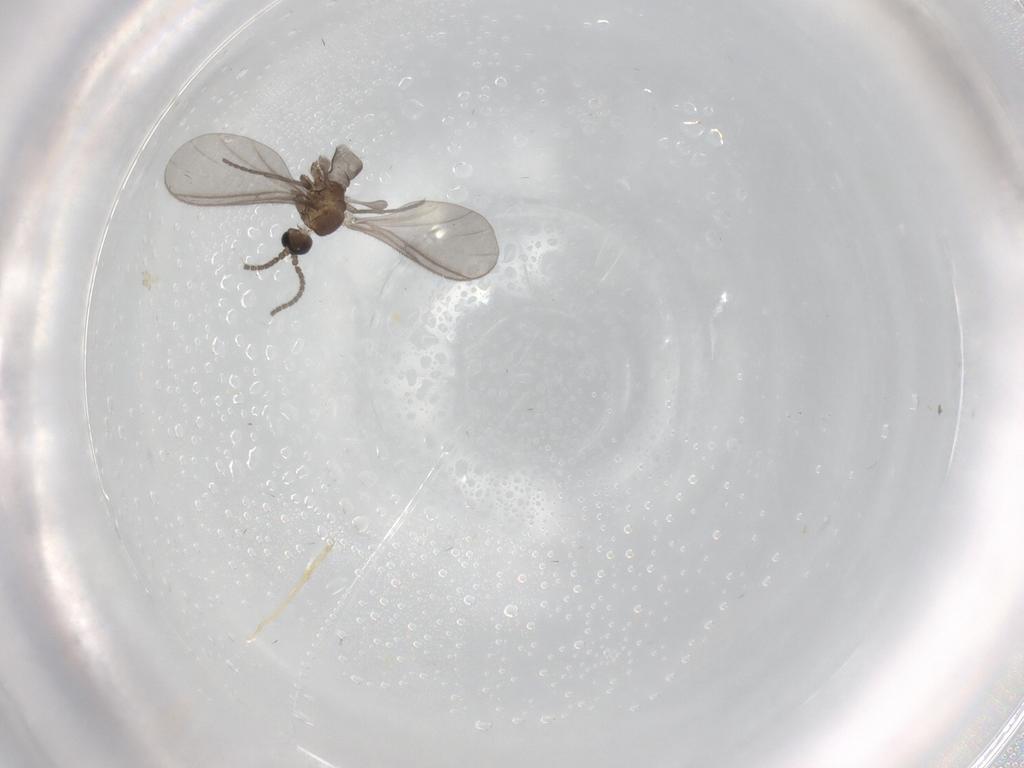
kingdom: Animalia
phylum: Arthropoda
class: Insecta
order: Diptera
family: Sciaridae
